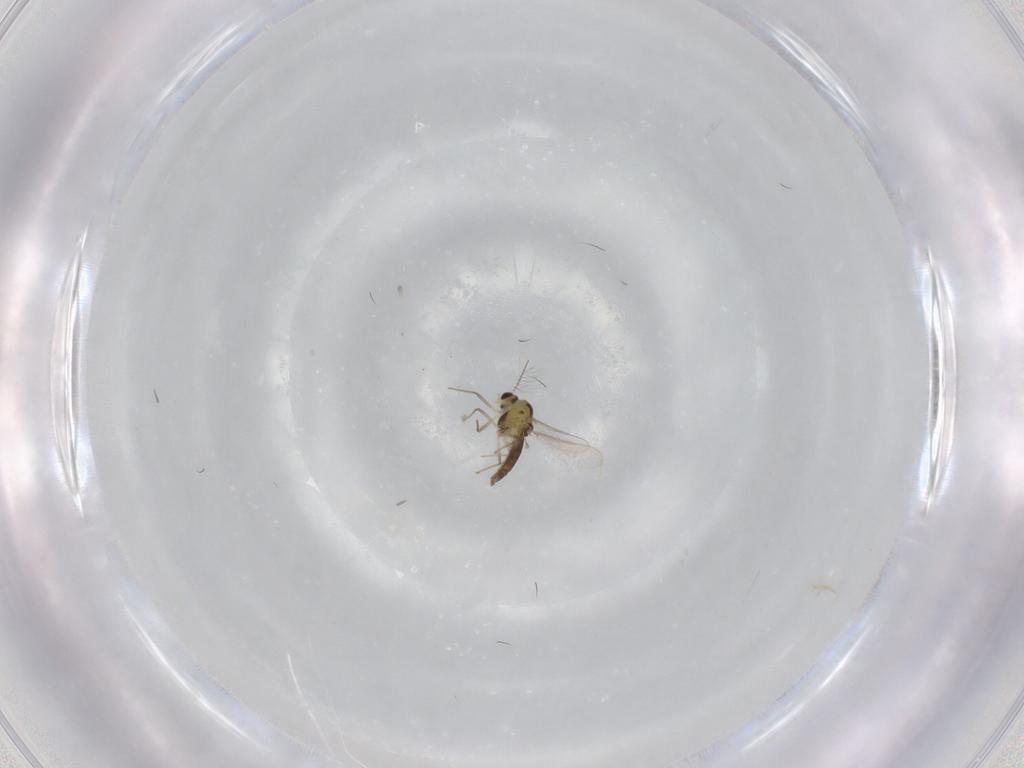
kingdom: Animalia
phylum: Arthropoda
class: Insecta
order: Diptera
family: Chironomidae
